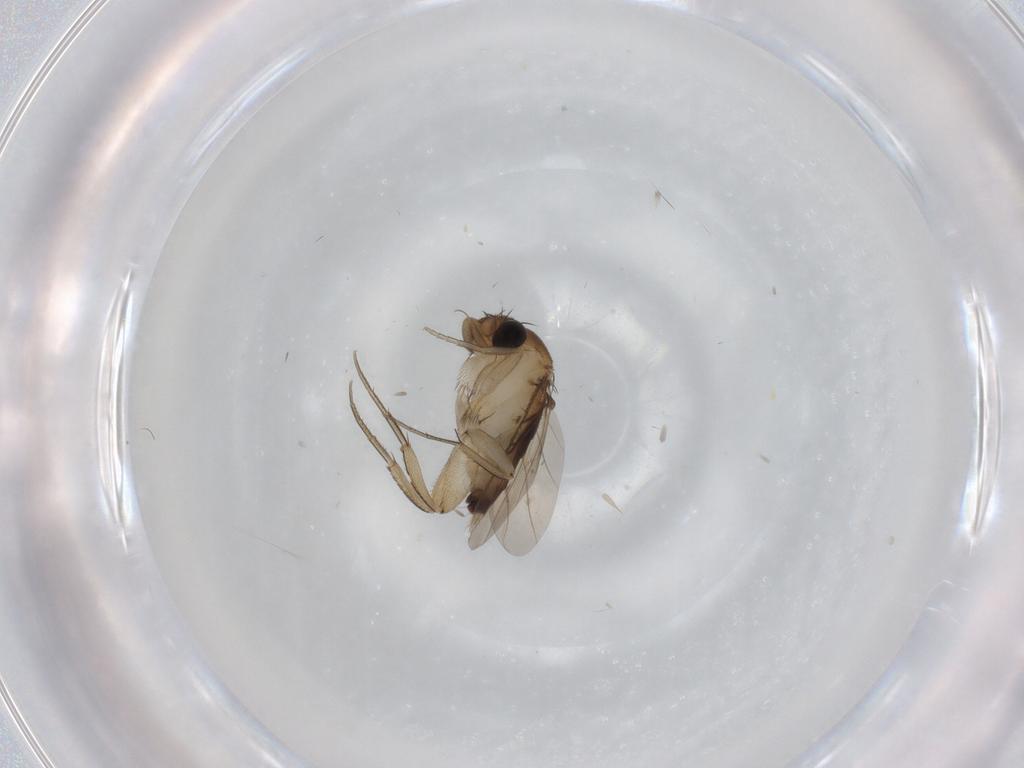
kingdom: Animalia
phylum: Arthropoda
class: Insecta
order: Diptera
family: Phoridae
